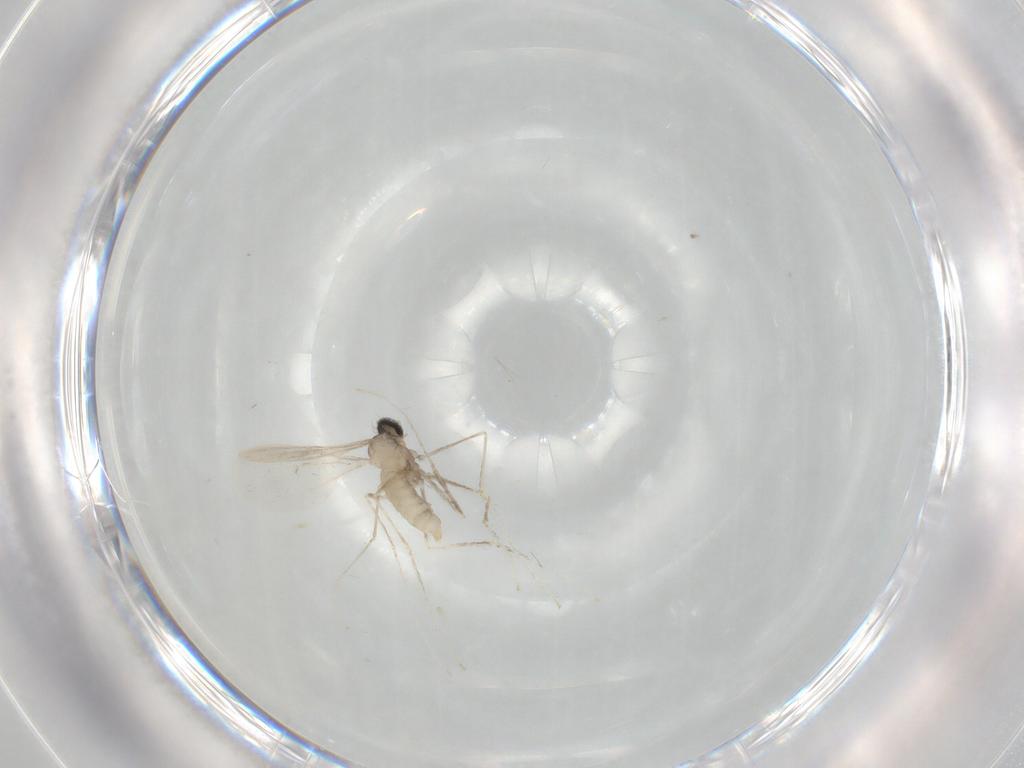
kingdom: Animalia
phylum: Arthropoda
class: Insecta
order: Diptera
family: Cecidomyiidae
